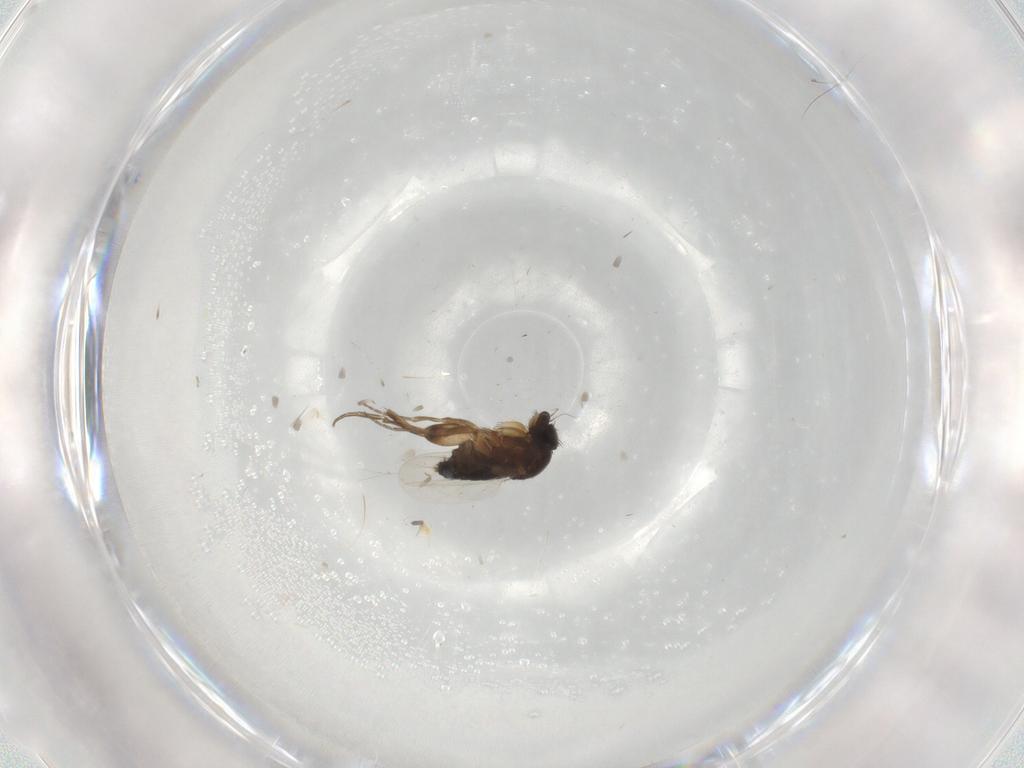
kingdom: Animalia
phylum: Arthropoda
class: Insecta
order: Diptera
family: Phoridae
